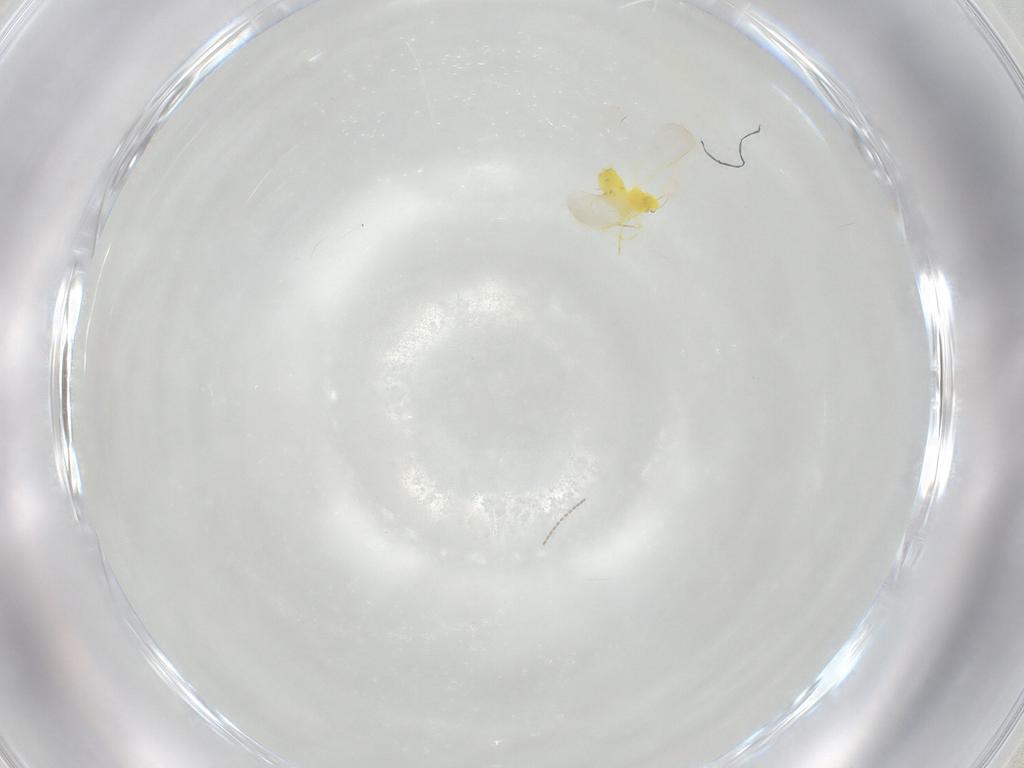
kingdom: Animalia
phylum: Arthropoda
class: Insecta
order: Hemiptera
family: Aleyrodidae
